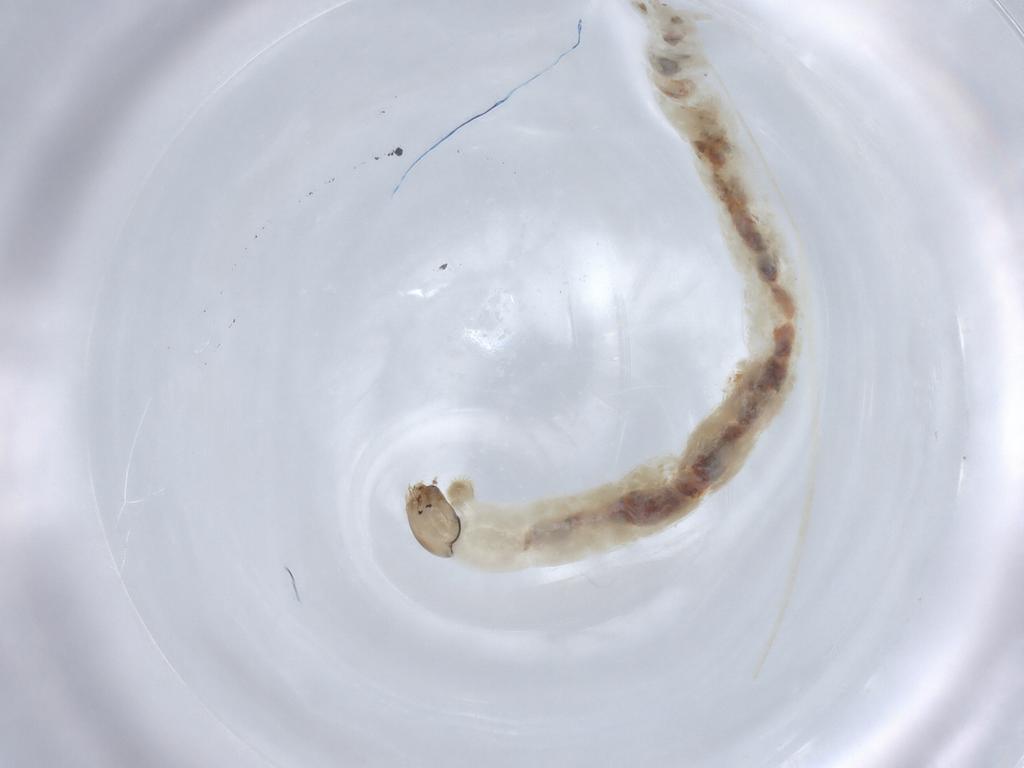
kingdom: Animalia
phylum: Arthropoda
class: Insecta
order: Diptera
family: Chironomidae
